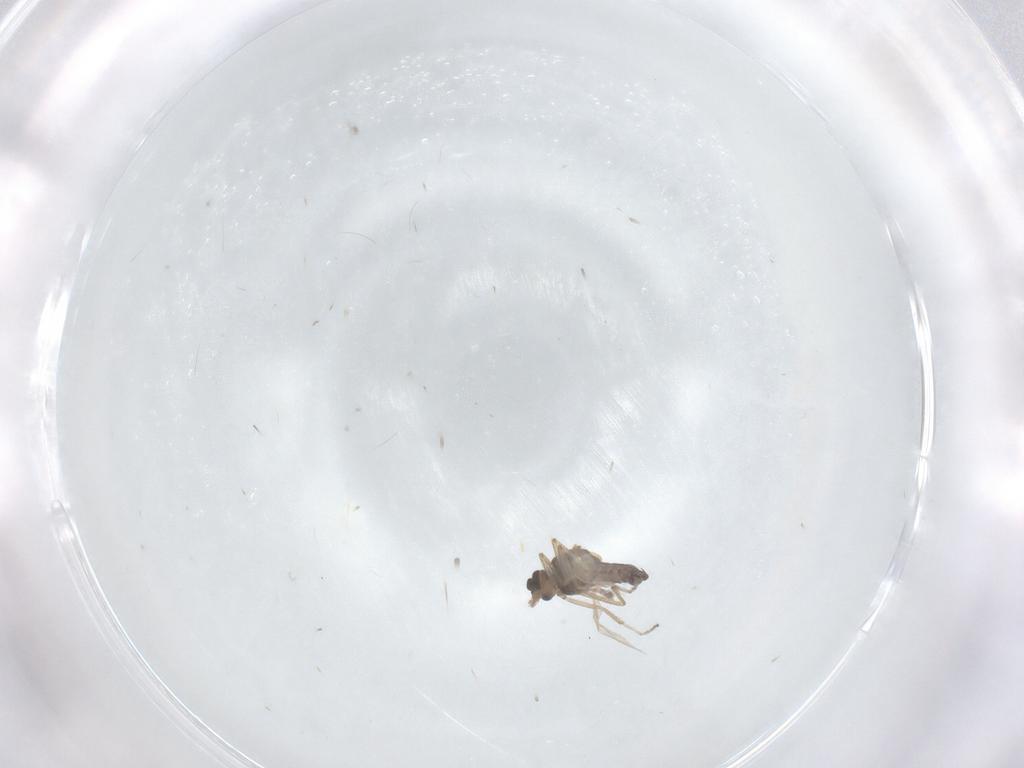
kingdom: Animalia
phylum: Arthropoda
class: Insecta
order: Diptera
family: Ceratopogonidae
